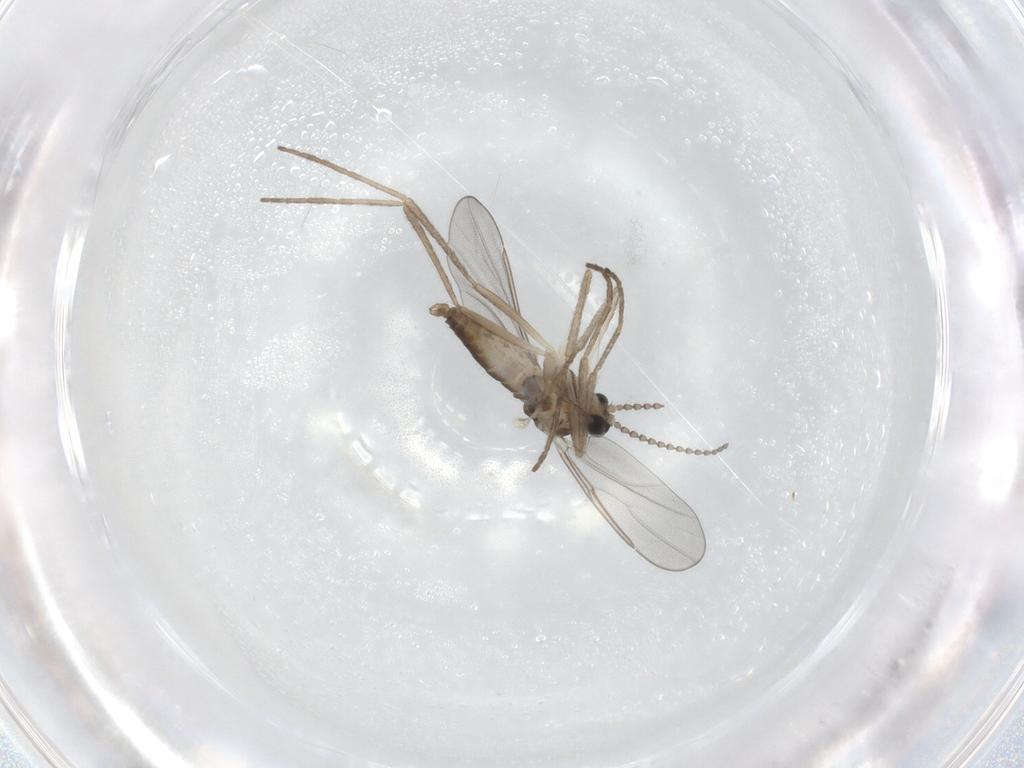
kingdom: Animalia
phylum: Arthropoda
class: Insecta
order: Diptera
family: Cecidomyiidae
